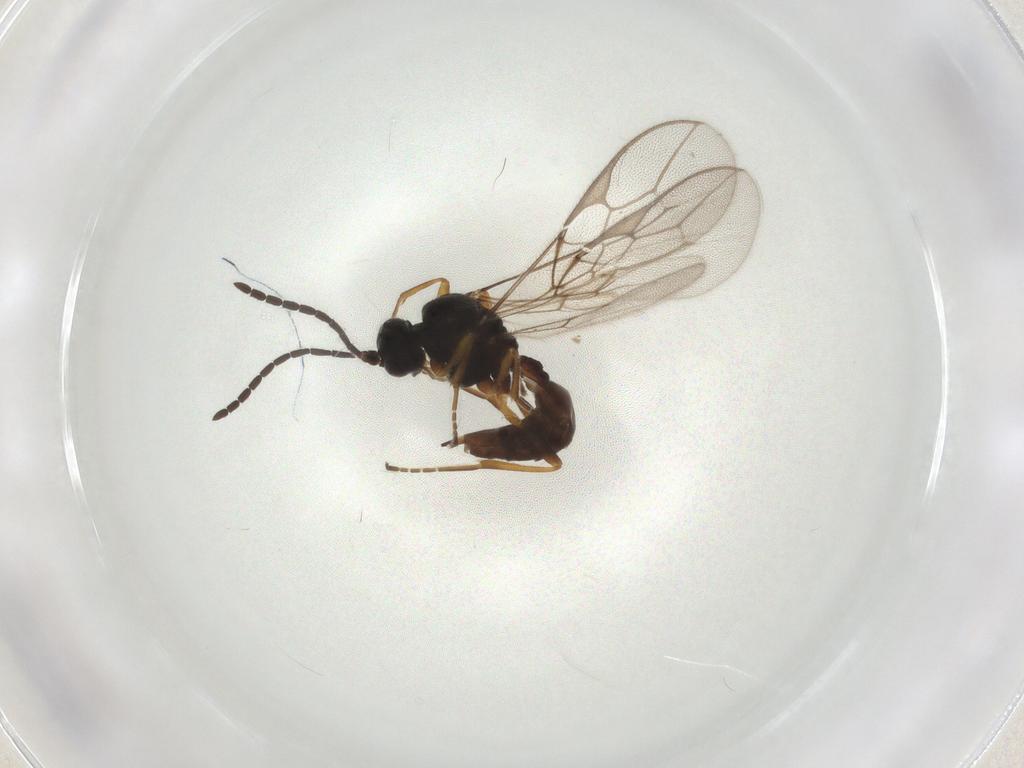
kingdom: Animalia
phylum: Arthropoda
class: Insecta
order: Hymenoptera
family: Braconidae
